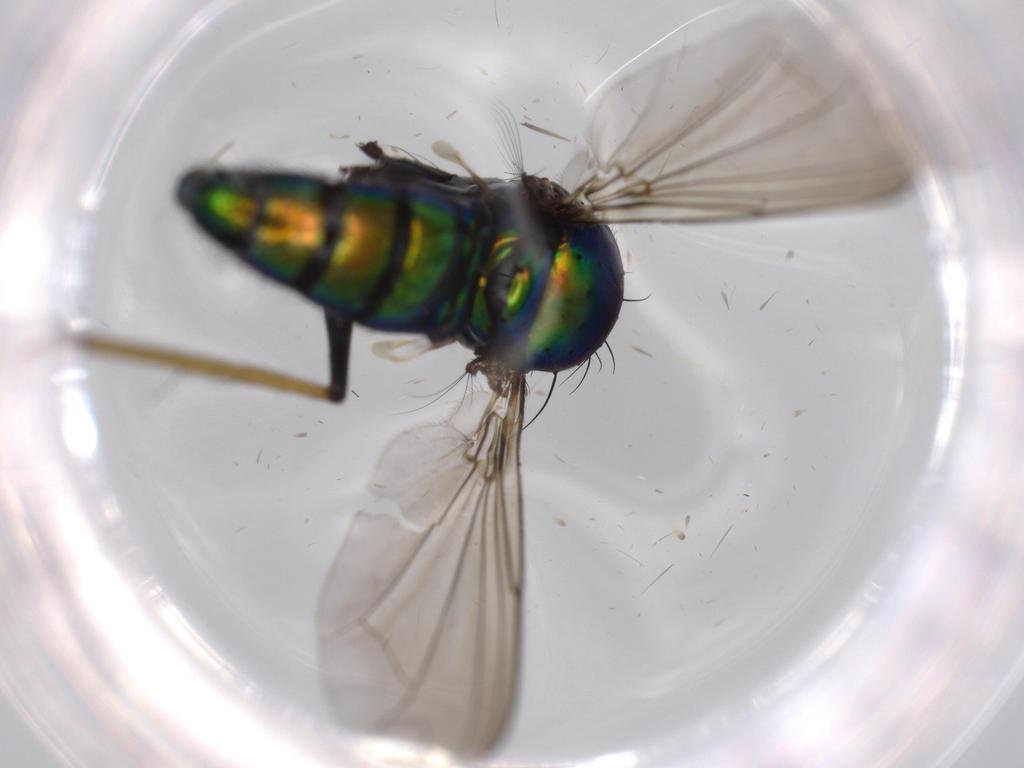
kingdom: Animalia
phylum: Arthropoda
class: Insecta
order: Diptera
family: Dolichopodidae
